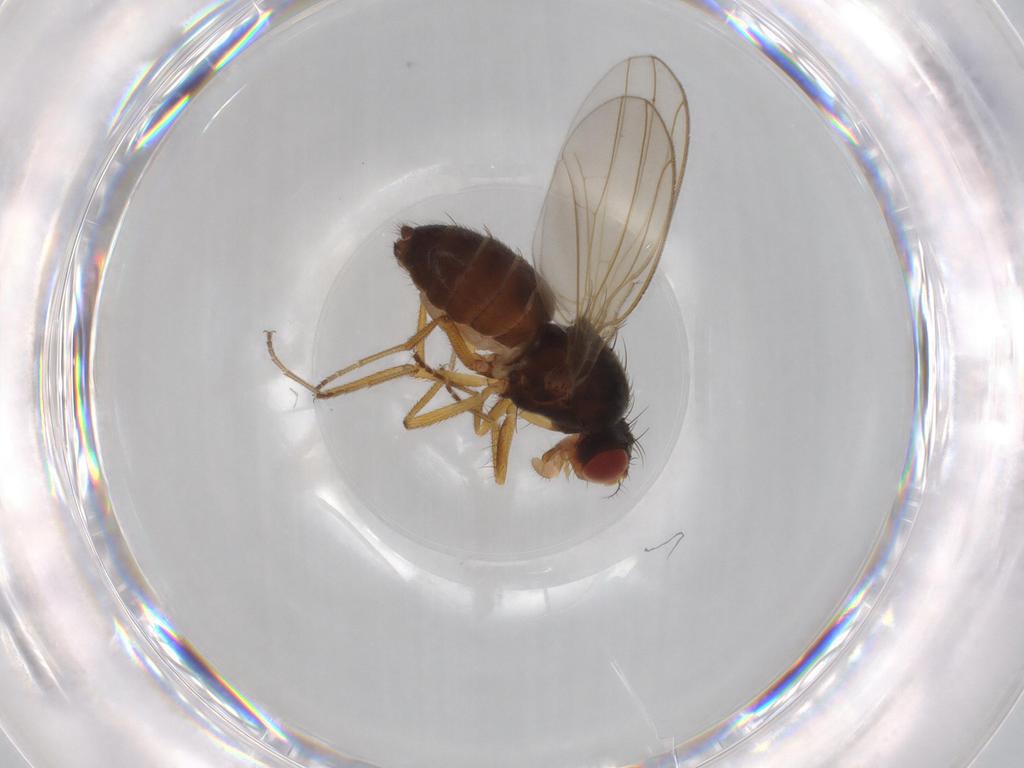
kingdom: Animalia
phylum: Arthropoda
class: Insecta
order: Diptera
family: Drosophilidae
